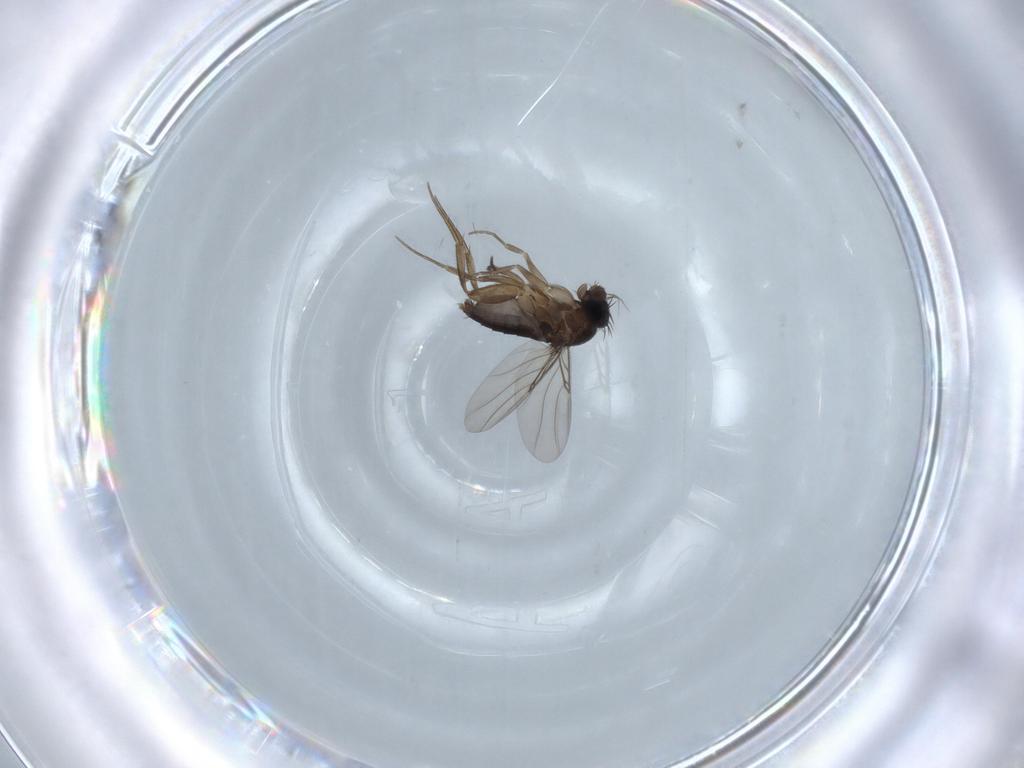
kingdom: Animalia
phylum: Arthropoda
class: Insecta
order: Diptera
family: Phoridae
